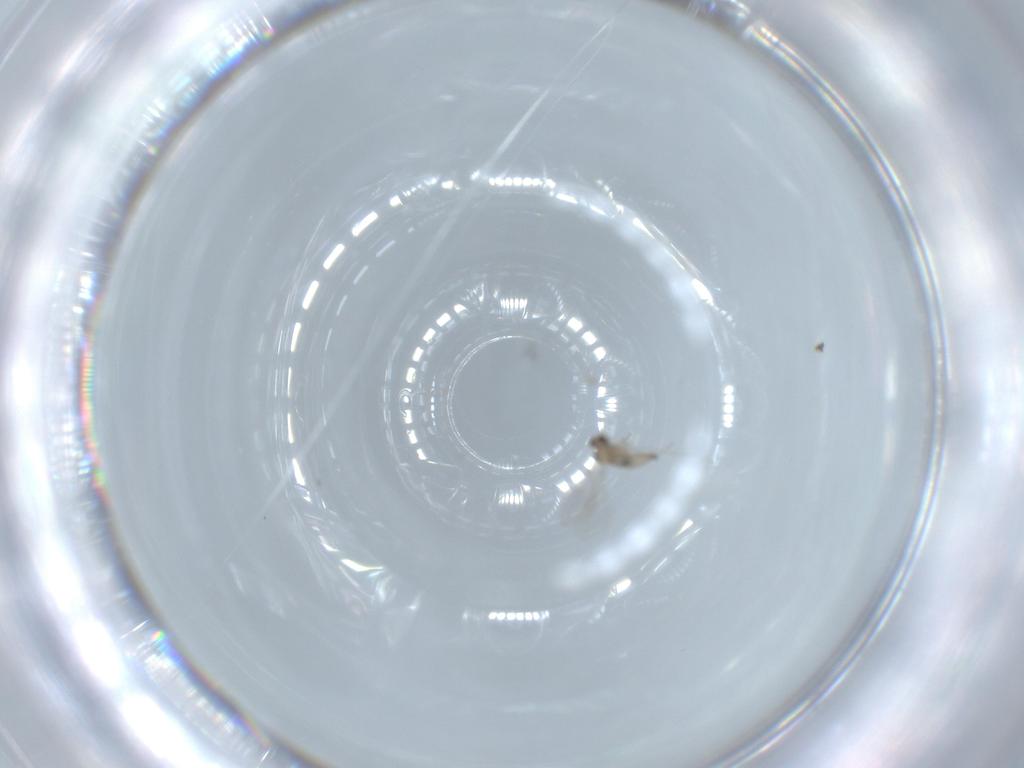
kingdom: Animalia
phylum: Arthropoda
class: Insecta
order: Diptera
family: Cecidomyiidae
